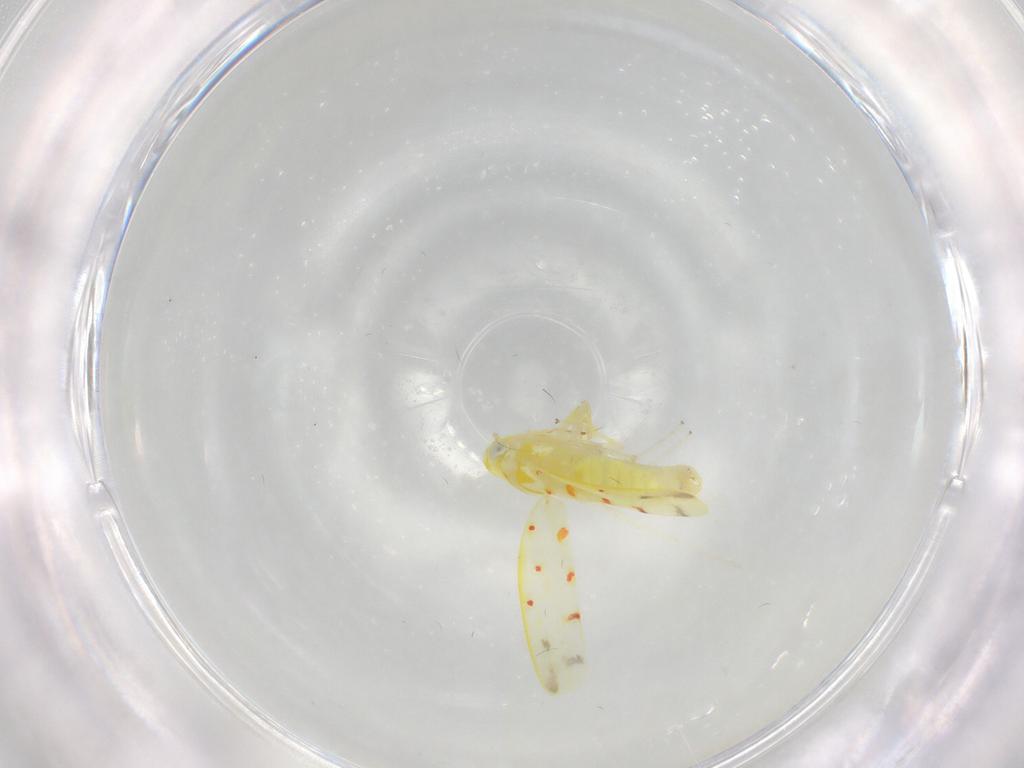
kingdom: Animalia
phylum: Arthropoda
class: Insecta
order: Hemiptera
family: Cicadellidae
